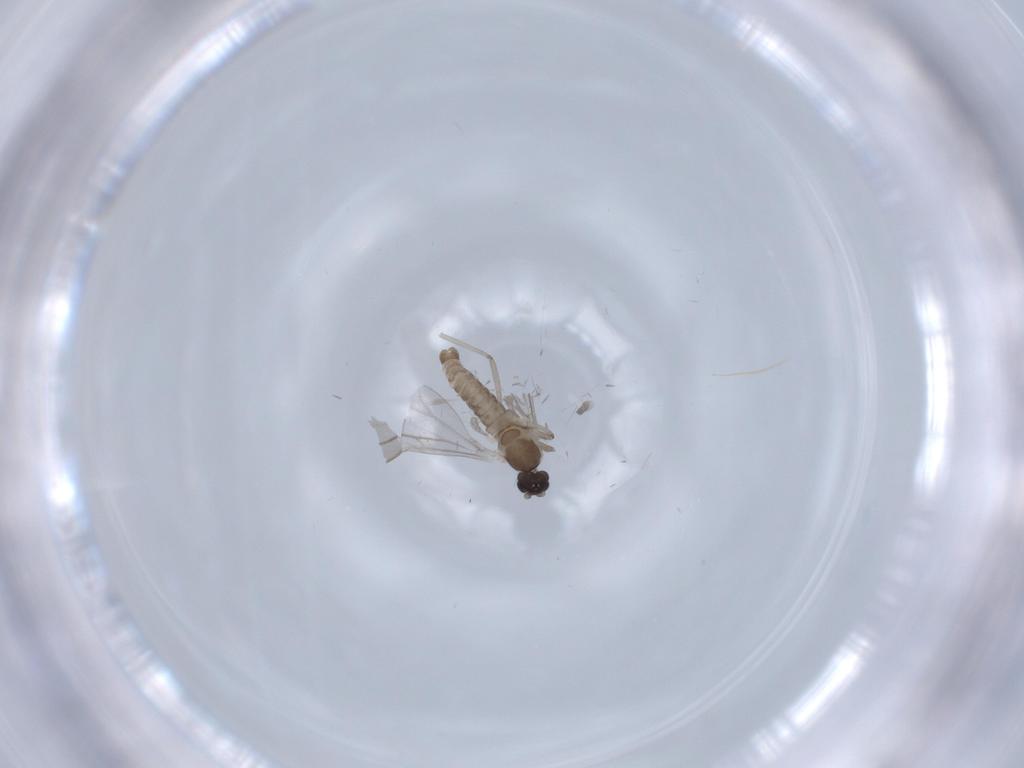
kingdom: Animalia
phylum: Arthropoda
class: Insecta
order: Diptera
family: Cecidomyiidae
